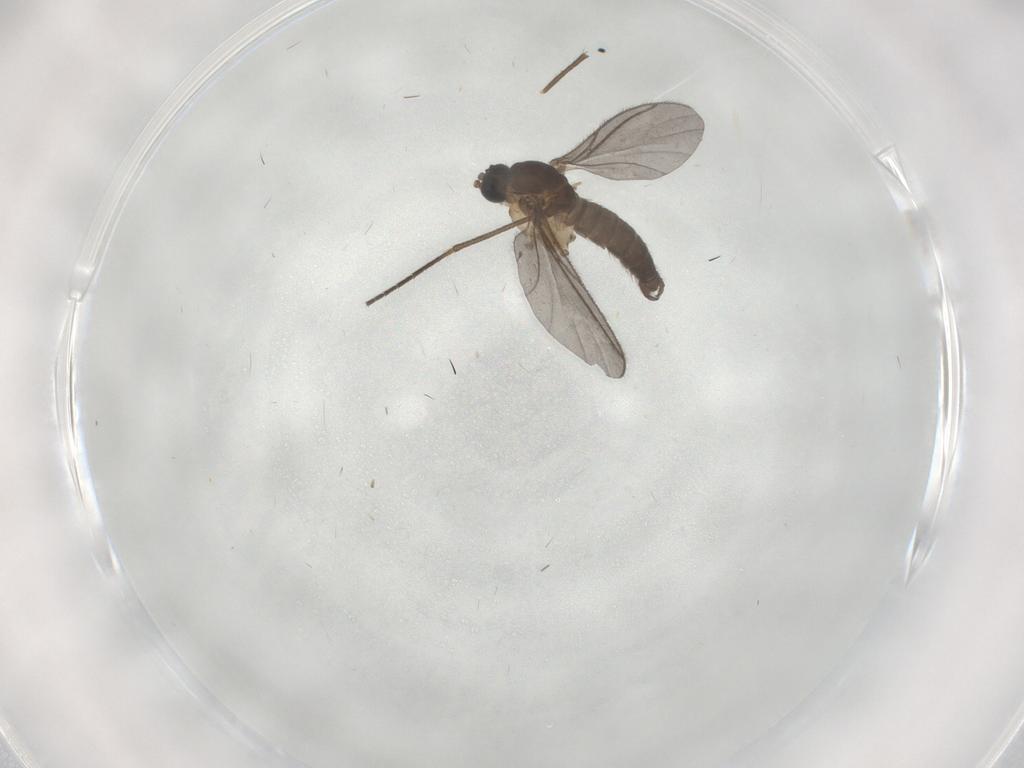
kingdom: Animalia
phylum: Arthropoda
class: Insecta
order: Diptera
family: Sciaridae
